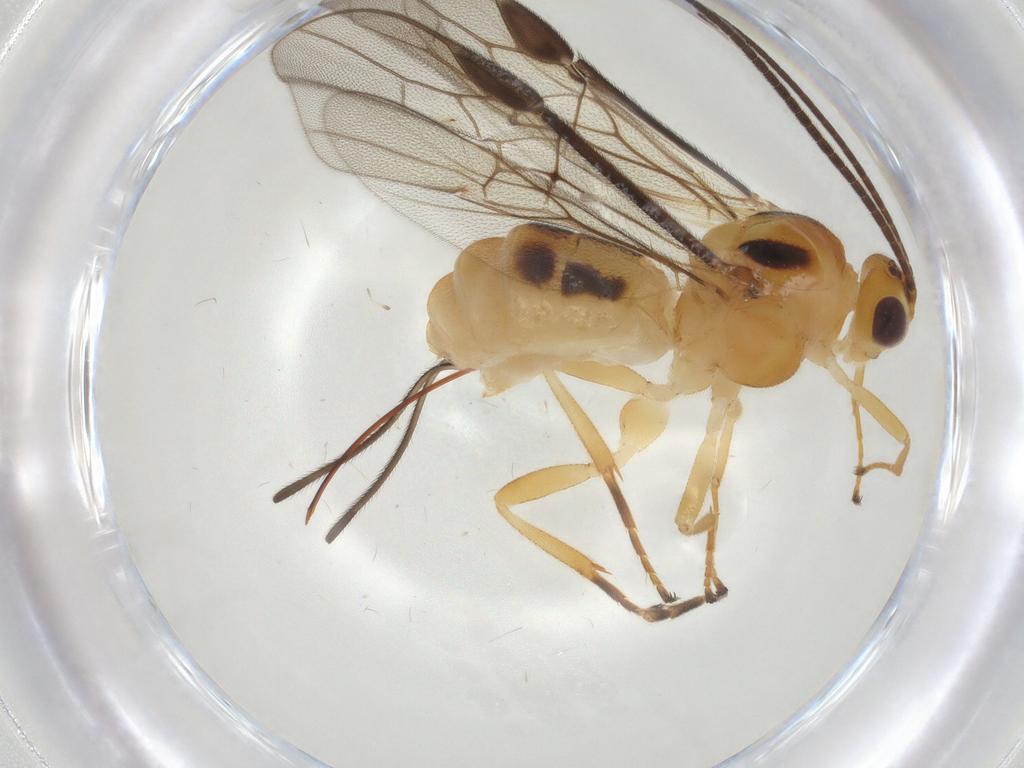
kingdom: Animalia
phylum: Arthropoda
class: Insecta
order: Hymenoptera
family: Braconidae
